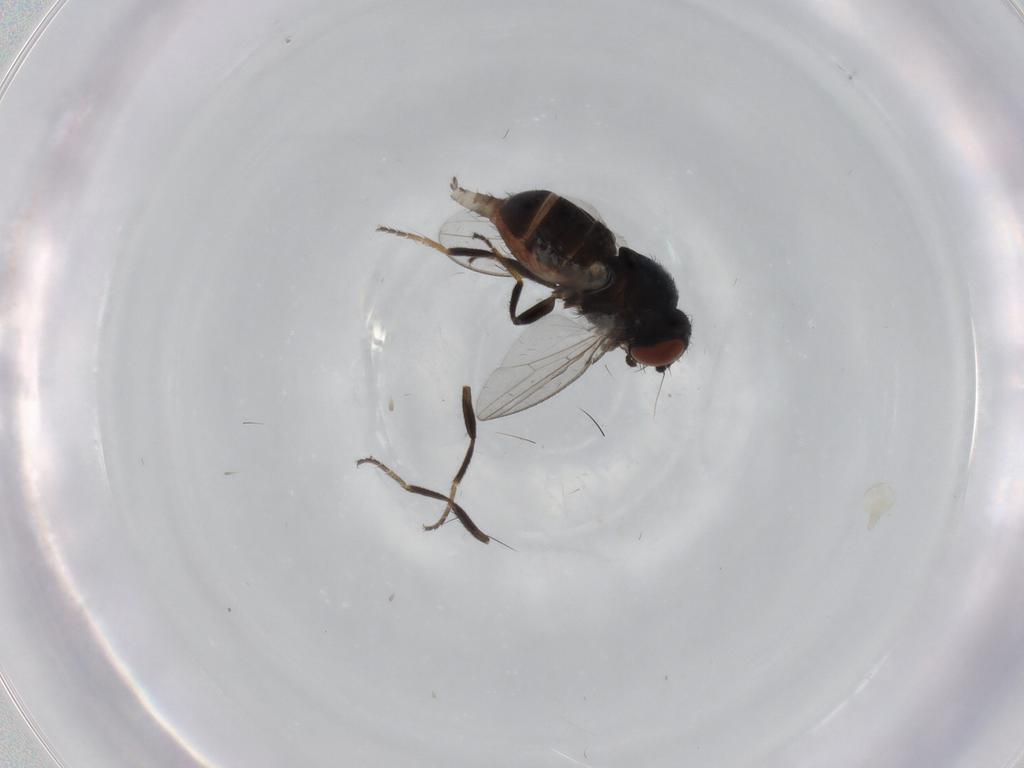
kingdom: Animalia
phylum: Arthropoda
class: Insecta
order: Diptera
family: Milichiidae
